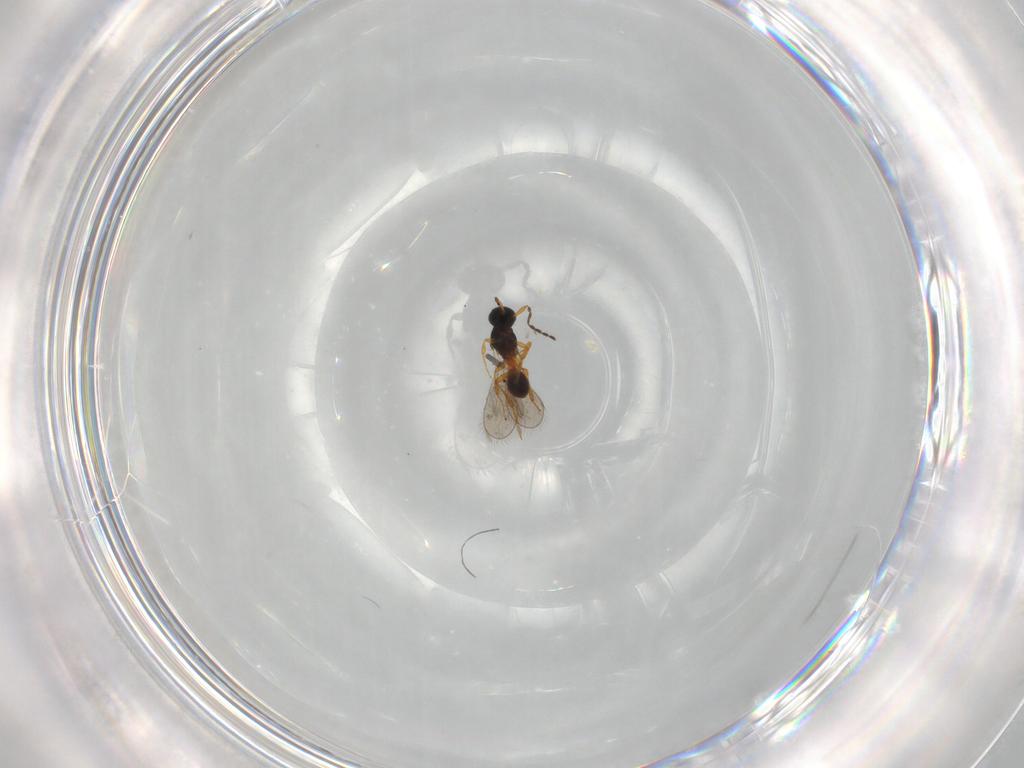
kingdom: Animalia
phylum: Arthropoda
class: Insecta
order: Hymenoptera
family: Platygastridae
